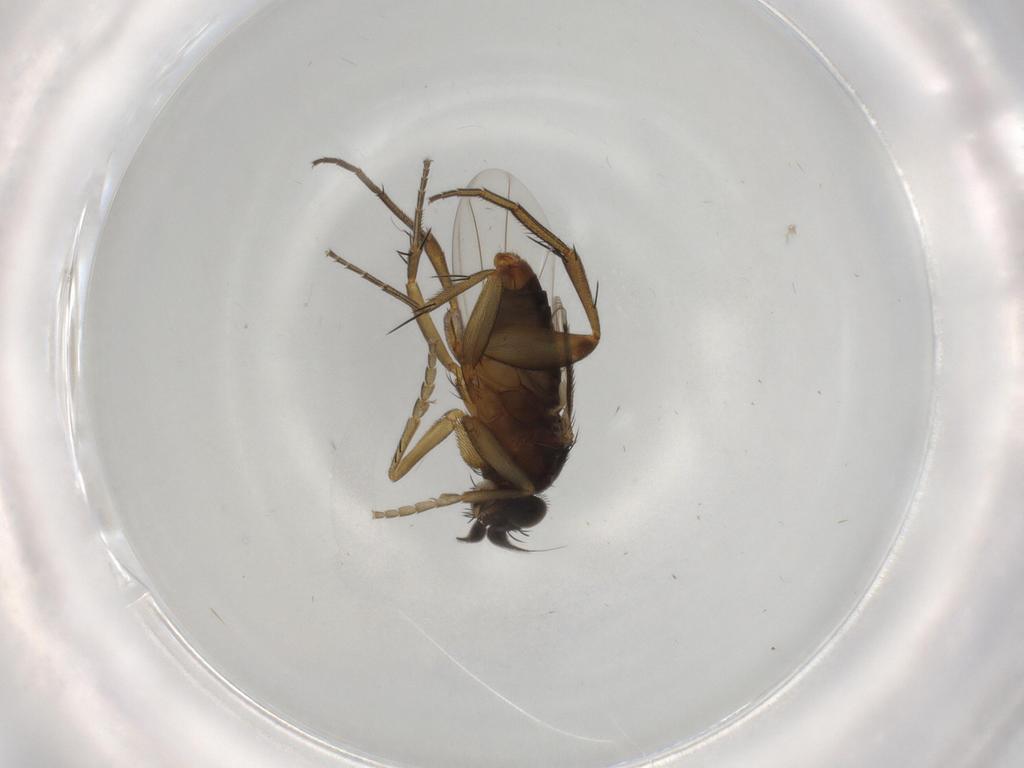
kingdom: Animalia
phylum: Arthropoda
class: Insecta
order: Diptera
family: Phoridae
